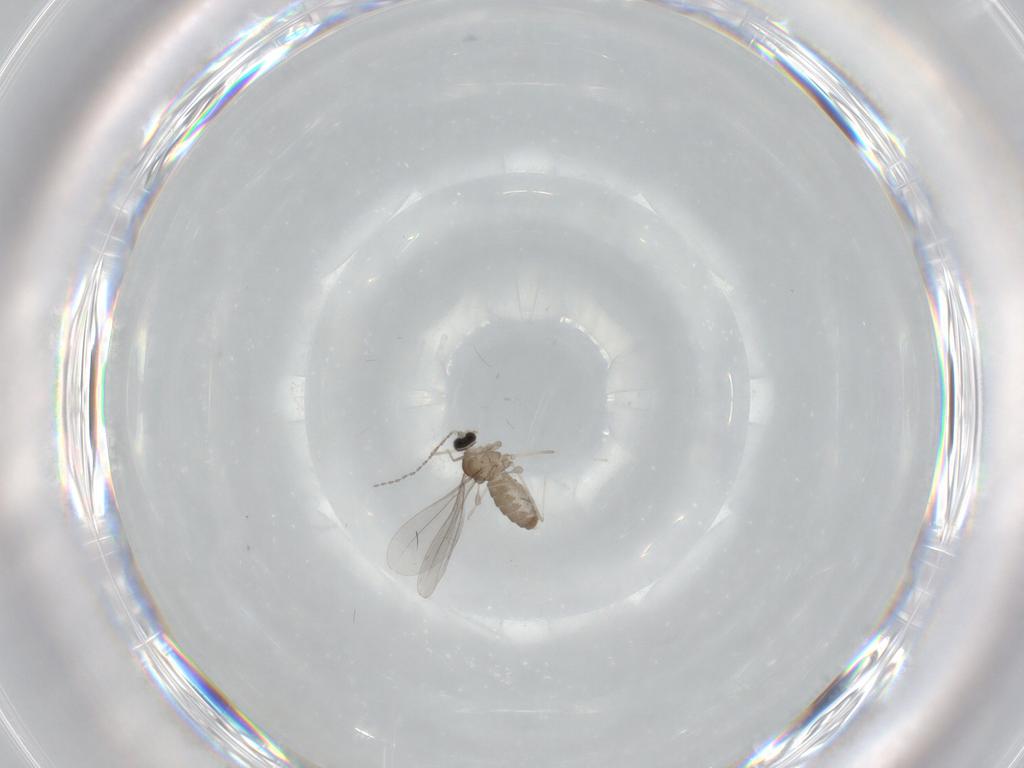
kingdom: Animalia
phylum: Arthropoda
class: Insecta
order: Diptera
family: Cecidomyiidae
